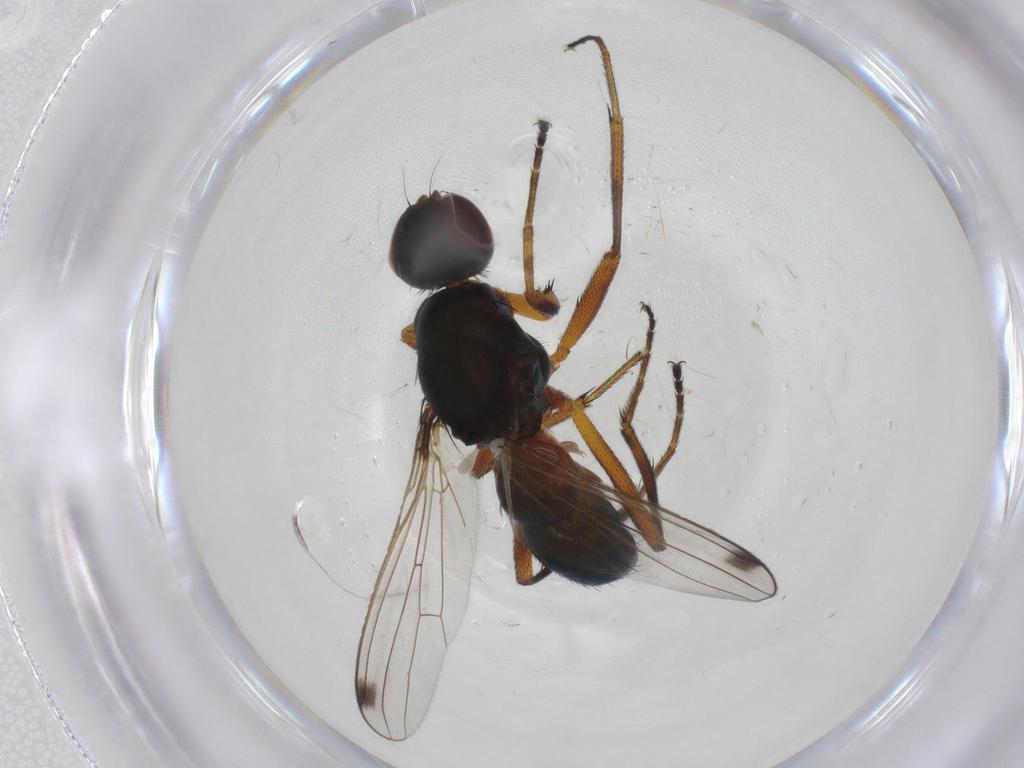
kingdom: Animalia
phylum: Arthropoda
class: Insecta
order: Diptera
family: Sepsidae
